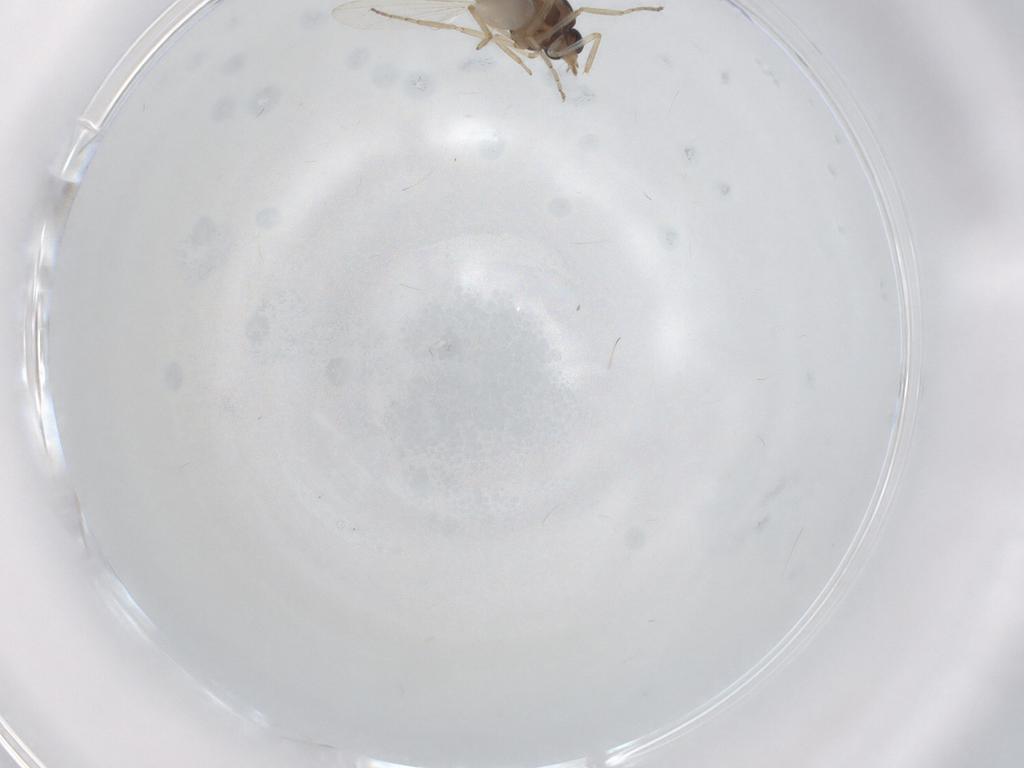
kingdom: Animalia
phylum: Arthropoda
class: Insecta
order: Diptera
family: Ceratopogonidae
